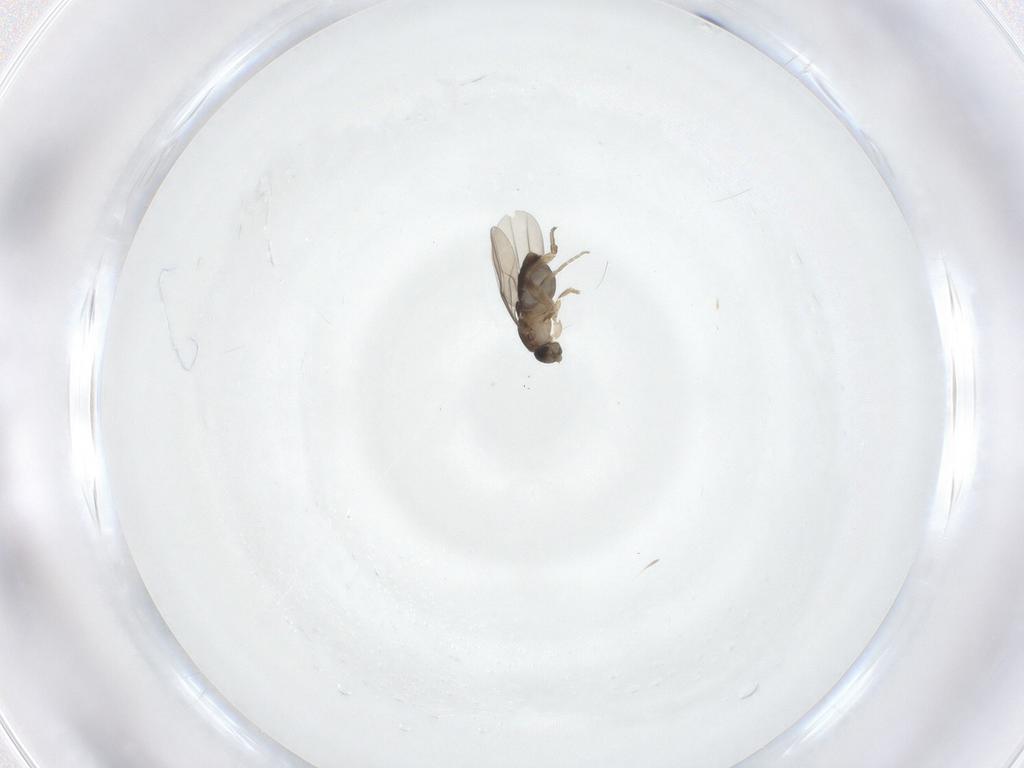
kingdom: Animalia
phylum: Arthropoda
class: Insecta
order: Diptera
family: Phoridae
